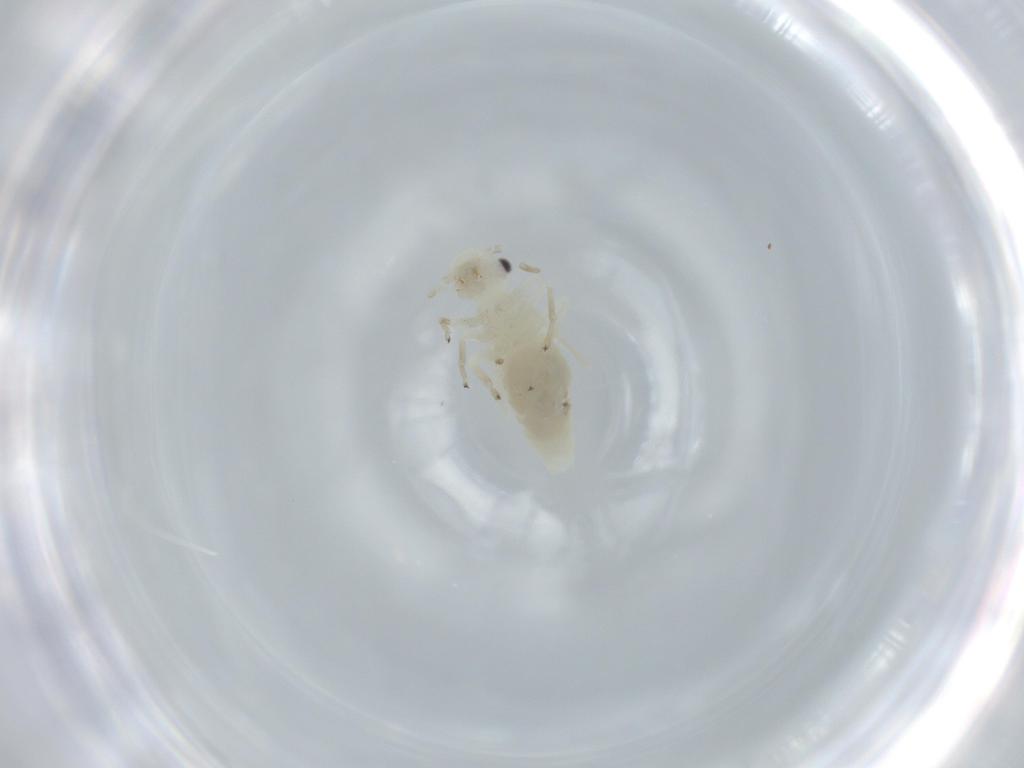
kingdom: Animalia
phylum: Arthropoda
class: Insecta
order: Psocodea
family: Caeciliusidae
